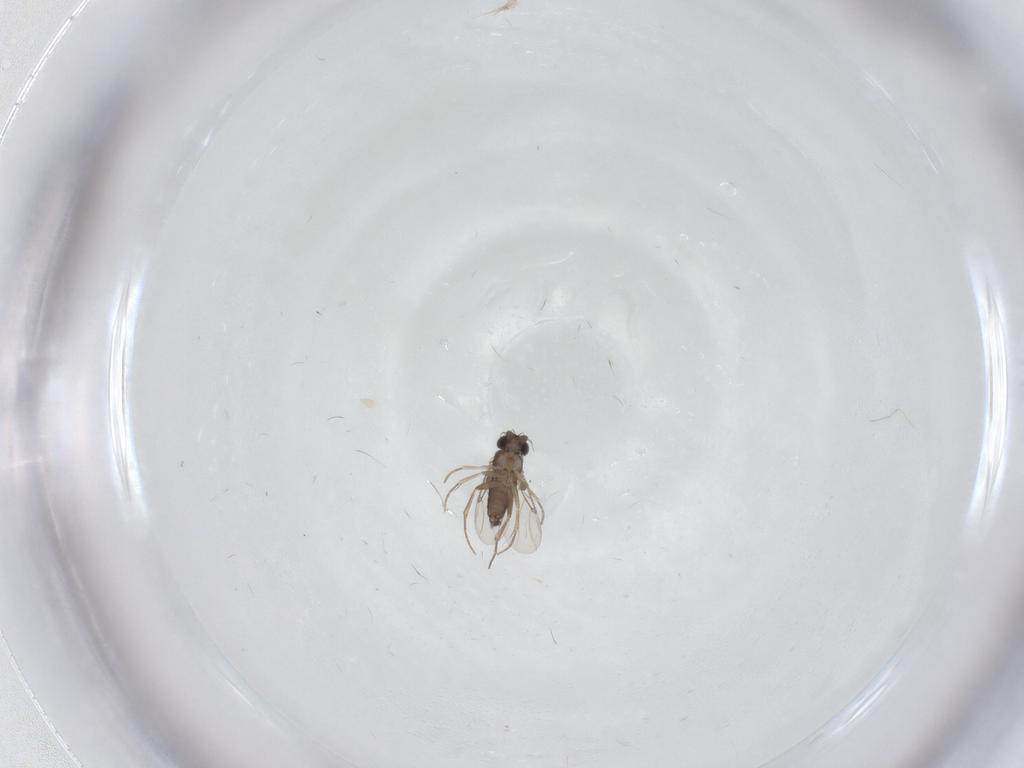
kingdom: Animalia
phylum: Arthropoda
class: Insecta
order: Diptera
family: Psychodidae
